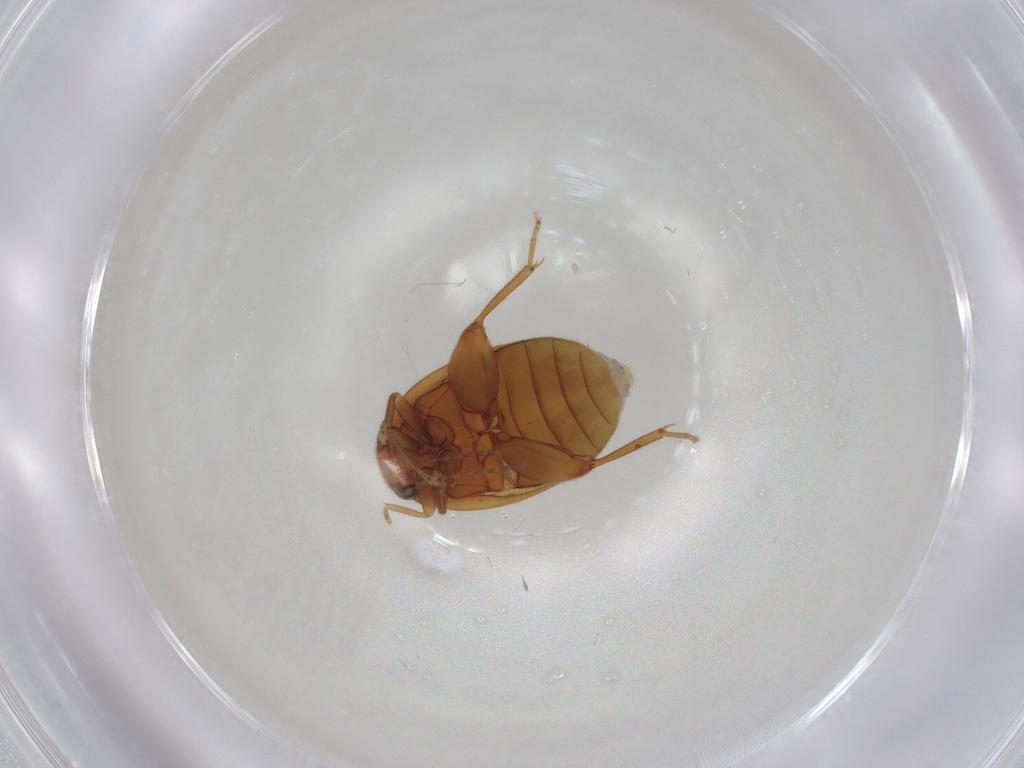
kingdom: Animalia
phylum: Arthropoda
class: Insecta
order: Coleoptera
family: Scirtidae
